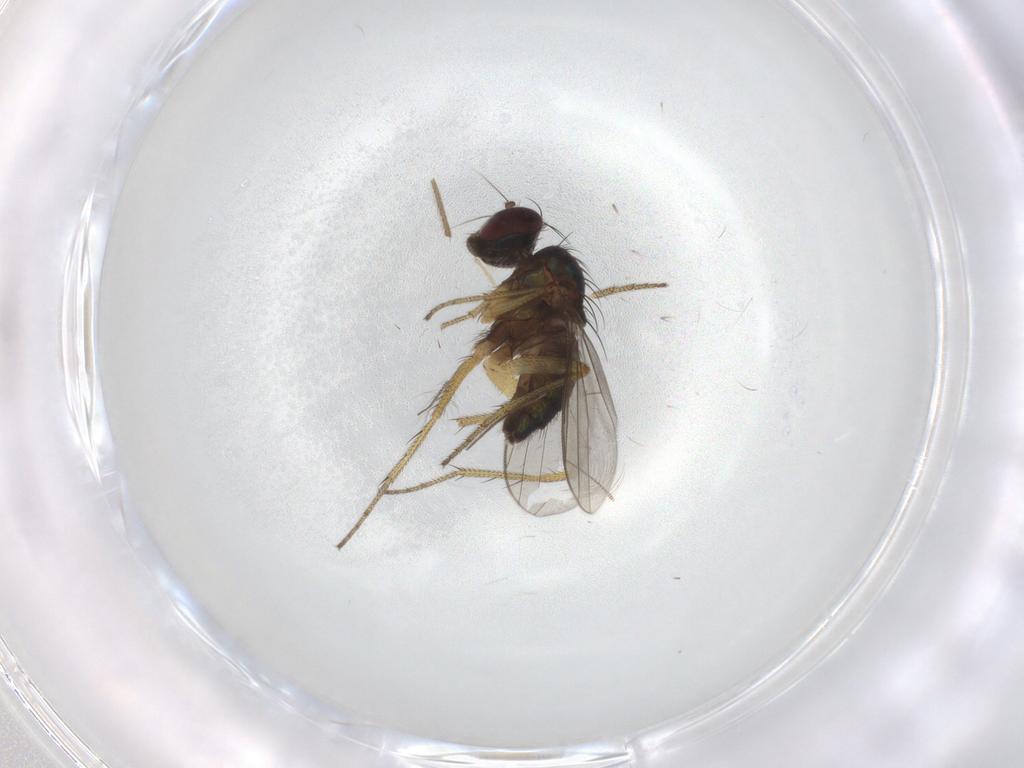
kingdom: Animalia
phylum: Arthropoda
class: Insecta
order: Diptera
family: Chironomidae
